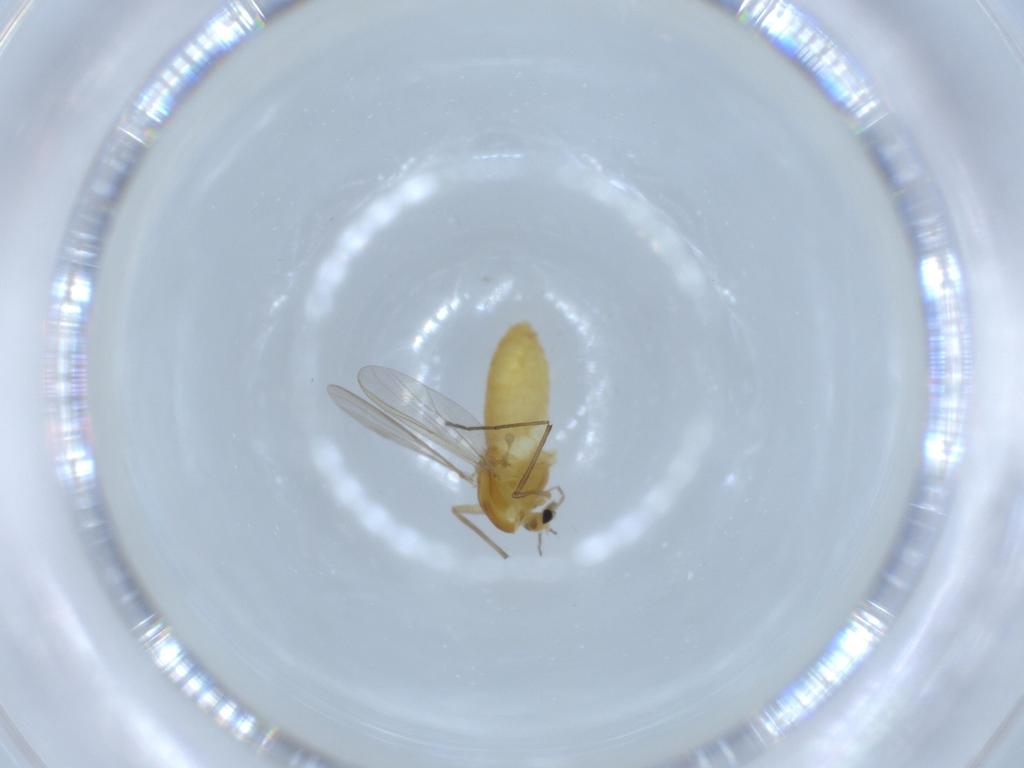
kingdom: Animalia
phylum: Arthropoda
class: Insecta
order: Diptera
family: Chironomidae
